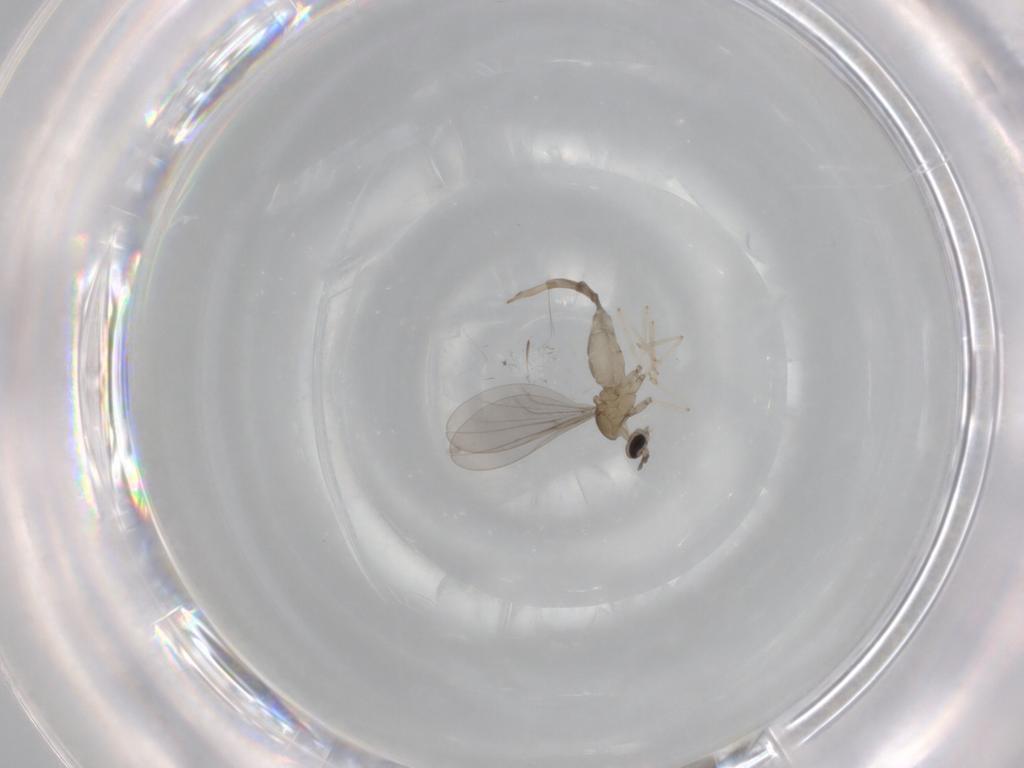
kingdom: Animalia
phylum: Arthropoda
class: Insecta
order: Diptera
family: Cecidomyiidae
